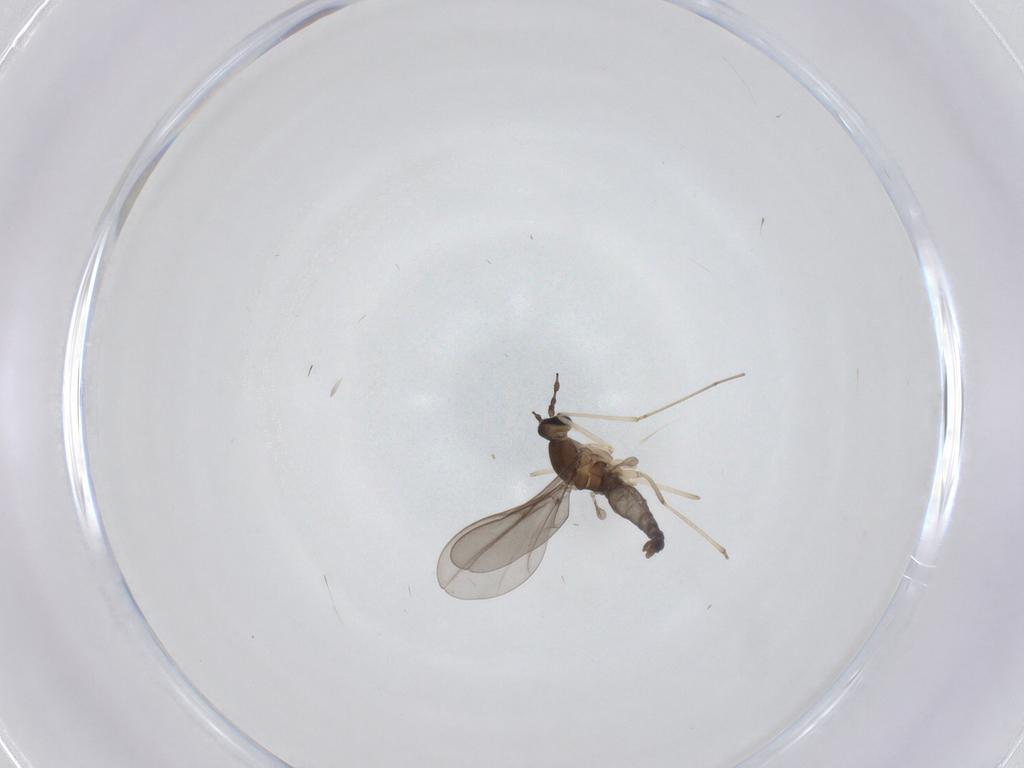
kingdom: Animalia
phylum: Arthropoda
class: Insecta
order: Diptera
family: Cecidomyiidae
